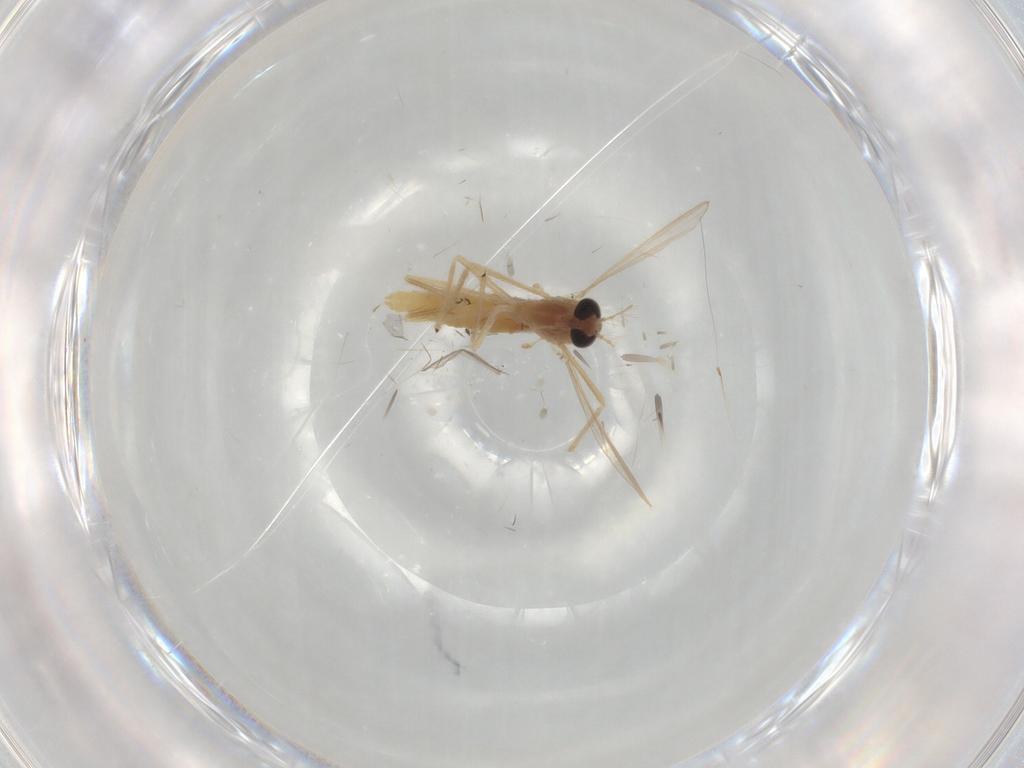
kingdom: Animalia
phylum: Arthropoda
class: Insecta
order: Diptera
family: Chironomidae
